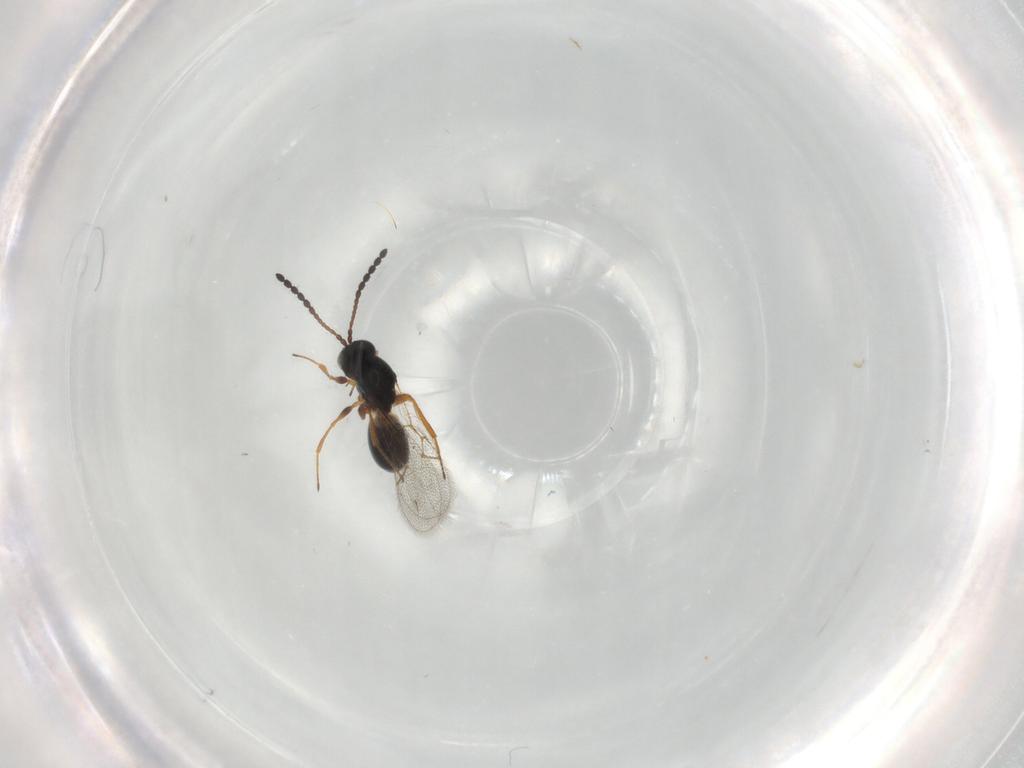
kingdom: Animalia
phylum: Arthropoda
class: Insecta
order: Hymenoptera
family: Figitidae
